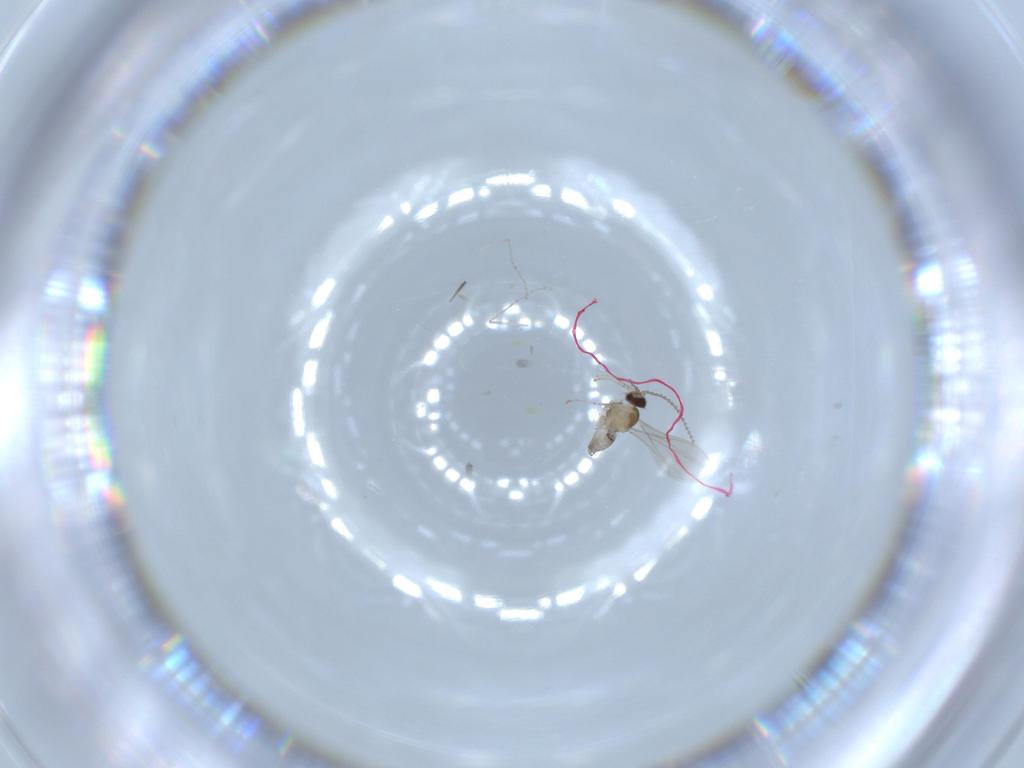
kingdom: Animalia
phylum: Arthropoda
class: Insecta
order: Diptera
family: Cecidomyiidae
